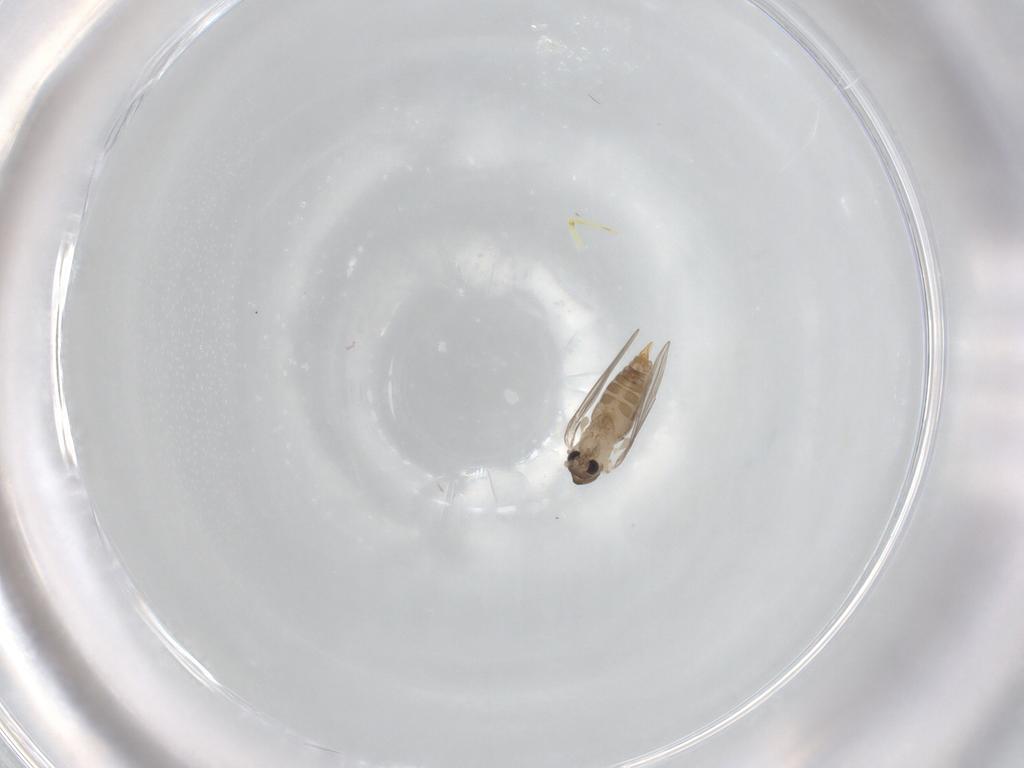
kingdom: Animalia
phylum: Arthropoda
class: Insecta
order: Diptera
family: Psychodidae
